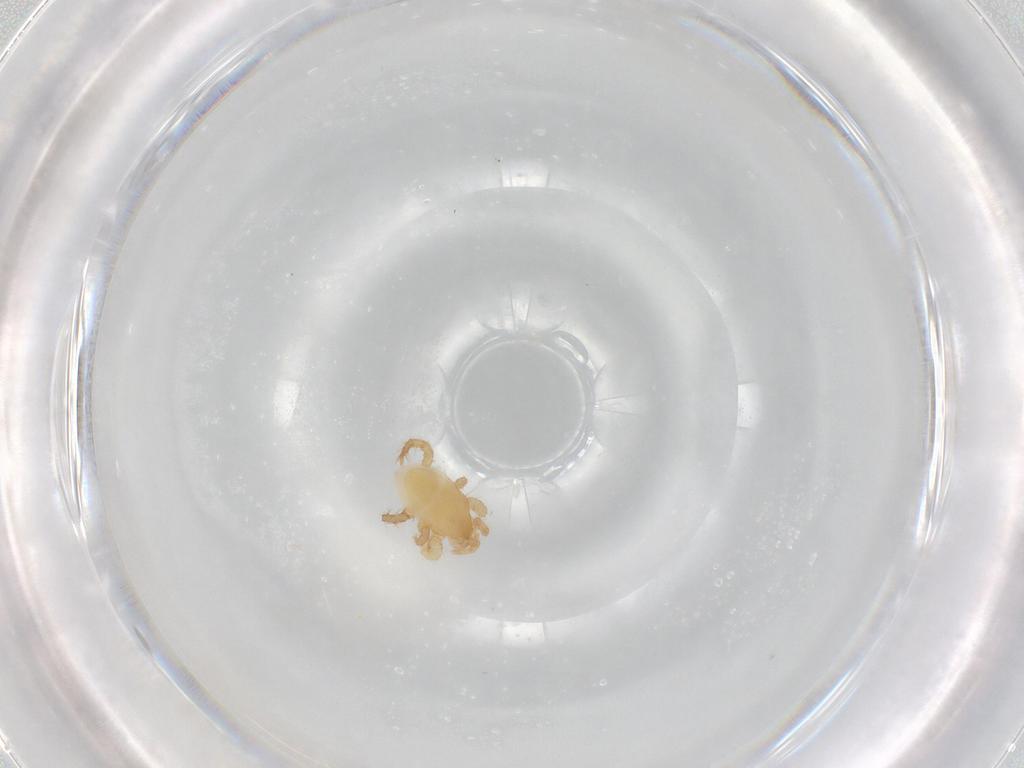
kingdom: Animalia
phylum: Arthropoda
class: Arachnida
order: Mesostigmata
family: Parasitidae
